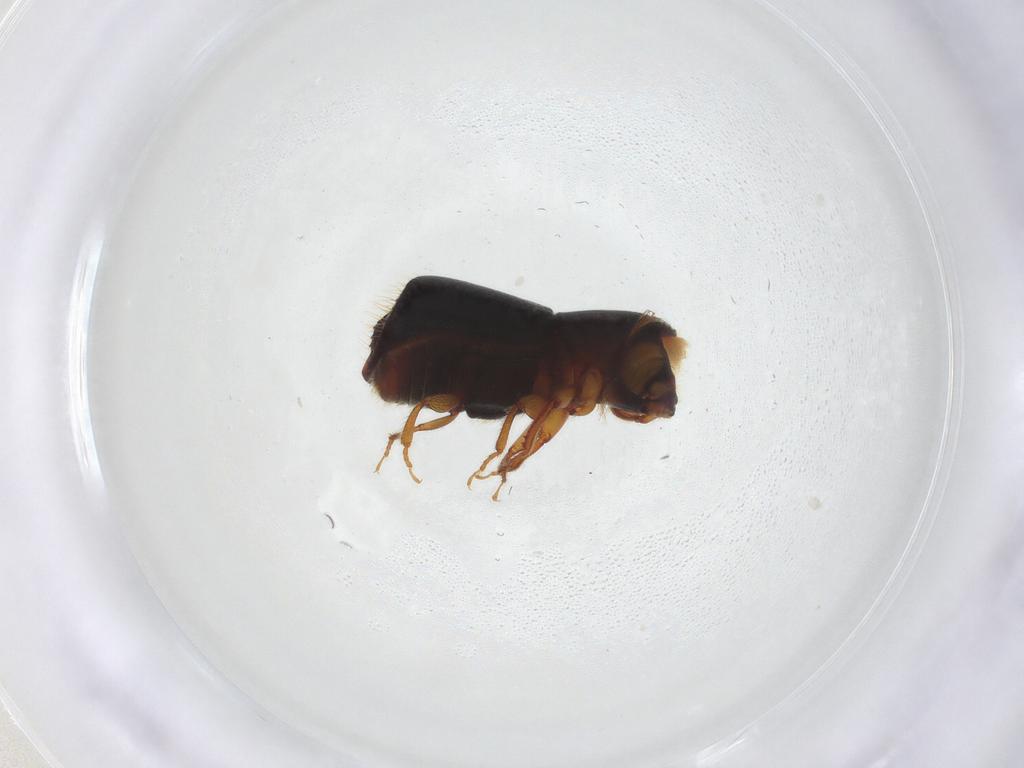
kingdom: Animalia
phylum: Arthropoda
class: Insecta
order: Coleoptera
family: Curculionidae
